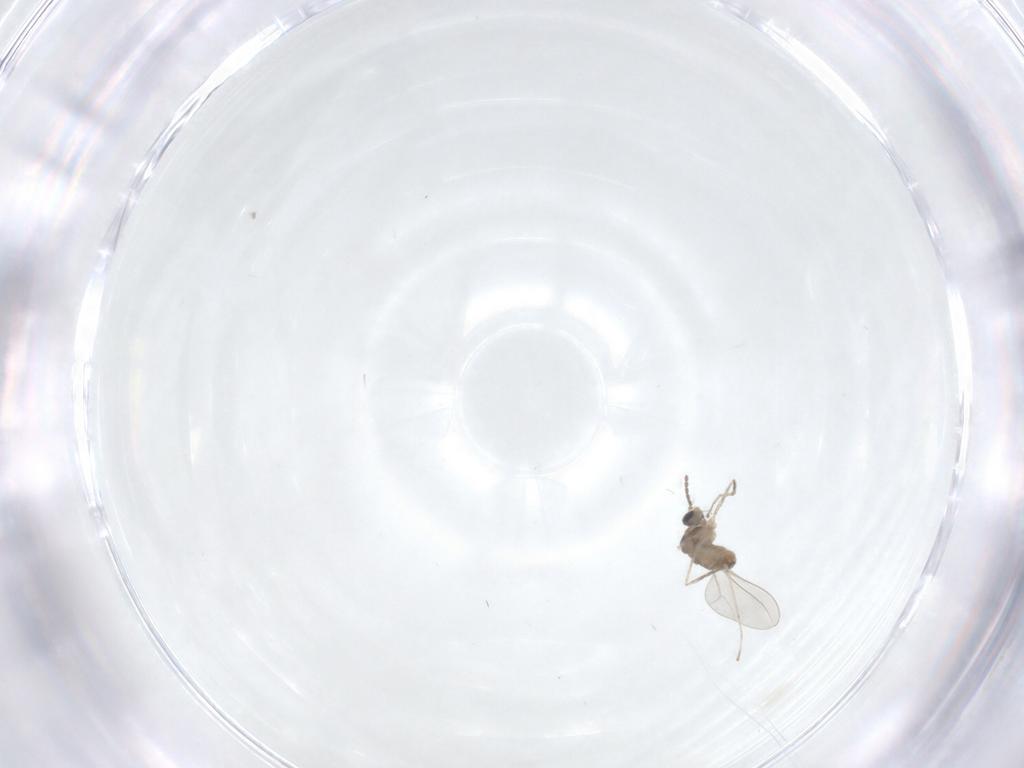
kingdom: Animalia
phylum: Arthropoda
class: Insecta
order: Diptera
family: Cecidomyiidae
